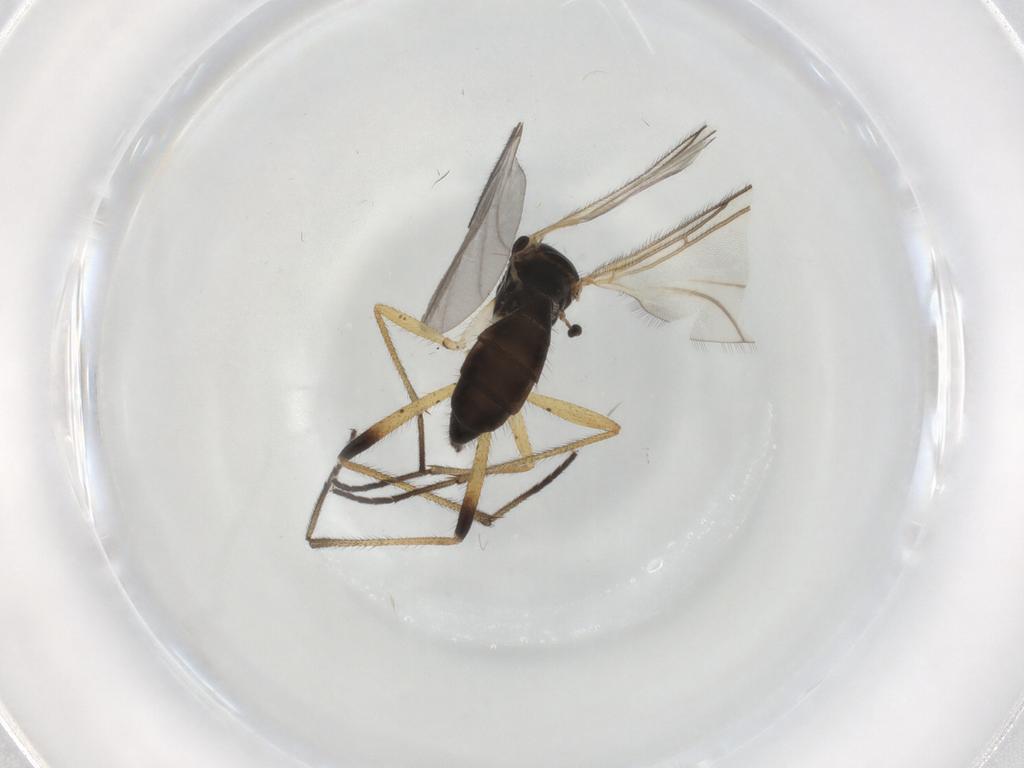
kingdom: Animalia
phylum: Arthropoda
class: Insecta
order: Diptera
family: Sciaridae
